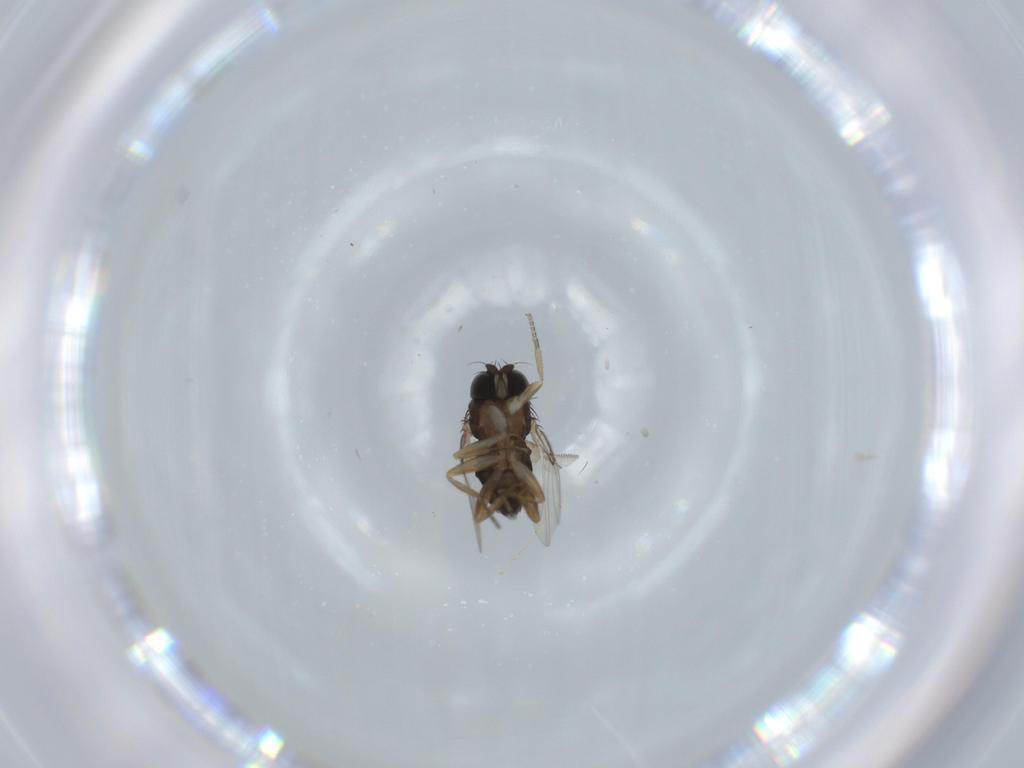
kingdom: Animalia
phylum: Arthropoda
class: Insecta
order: Diptera
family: Phoridae
